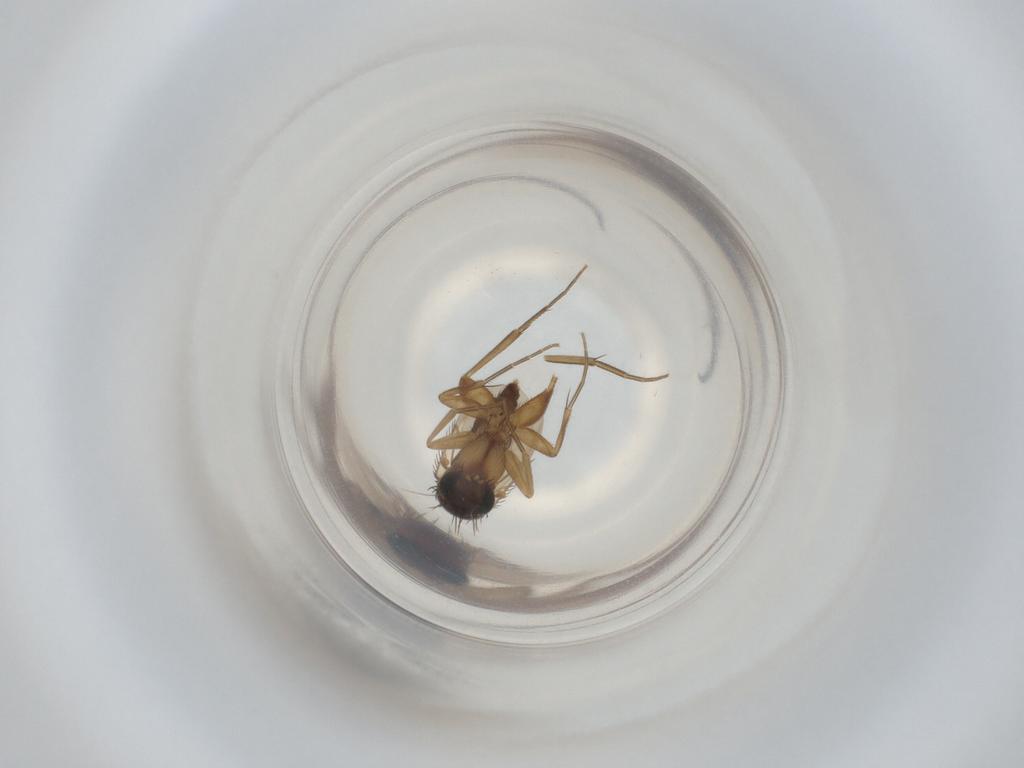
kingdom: Animalia
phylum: Arthropoda
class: Insecta
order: Diptera
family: Phoridae
